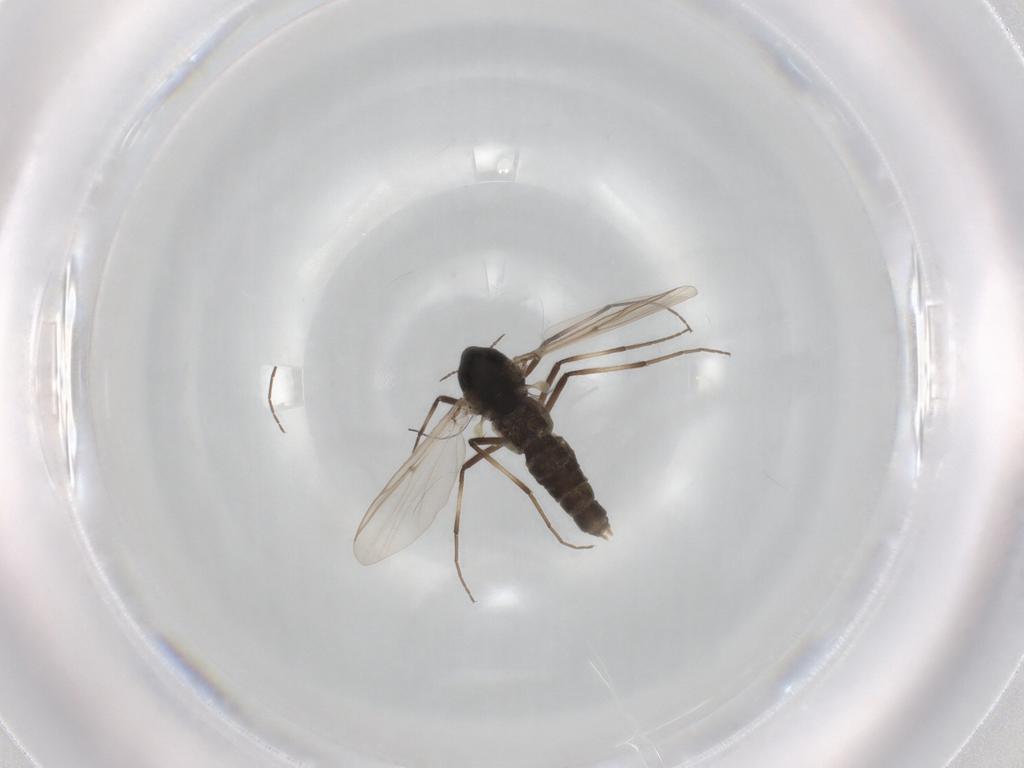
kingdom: Animalia
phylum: Arthropoda
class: Insecta
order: Diptera
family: Chironomidae
